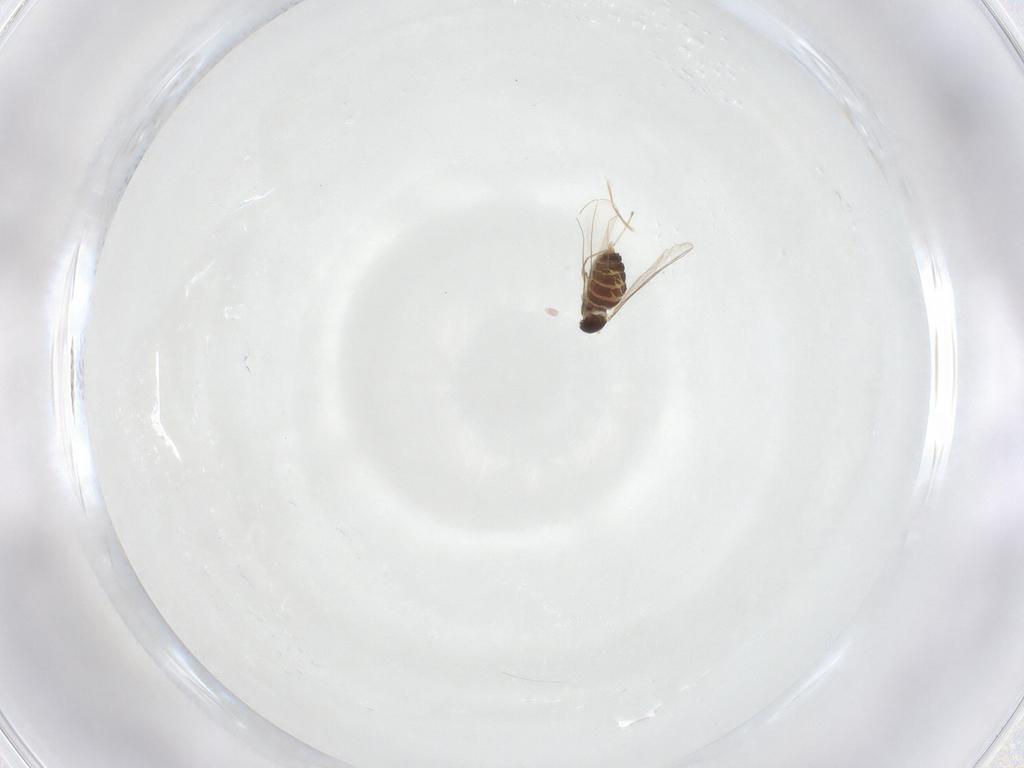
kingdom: Animalia
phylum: Arthropoda
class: Insecta
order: Diptera
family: Cecidomyiidae
